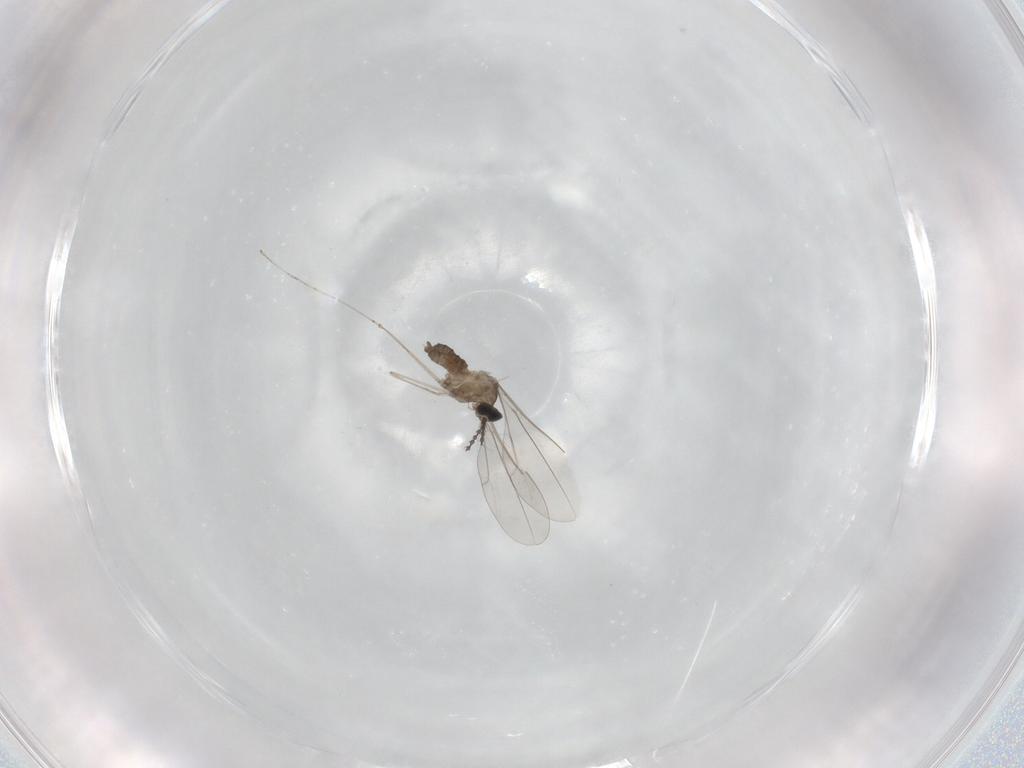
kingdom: Animalia
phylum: Arthropoda
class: Insecta
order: Diptera
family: Cecidomyiidae
